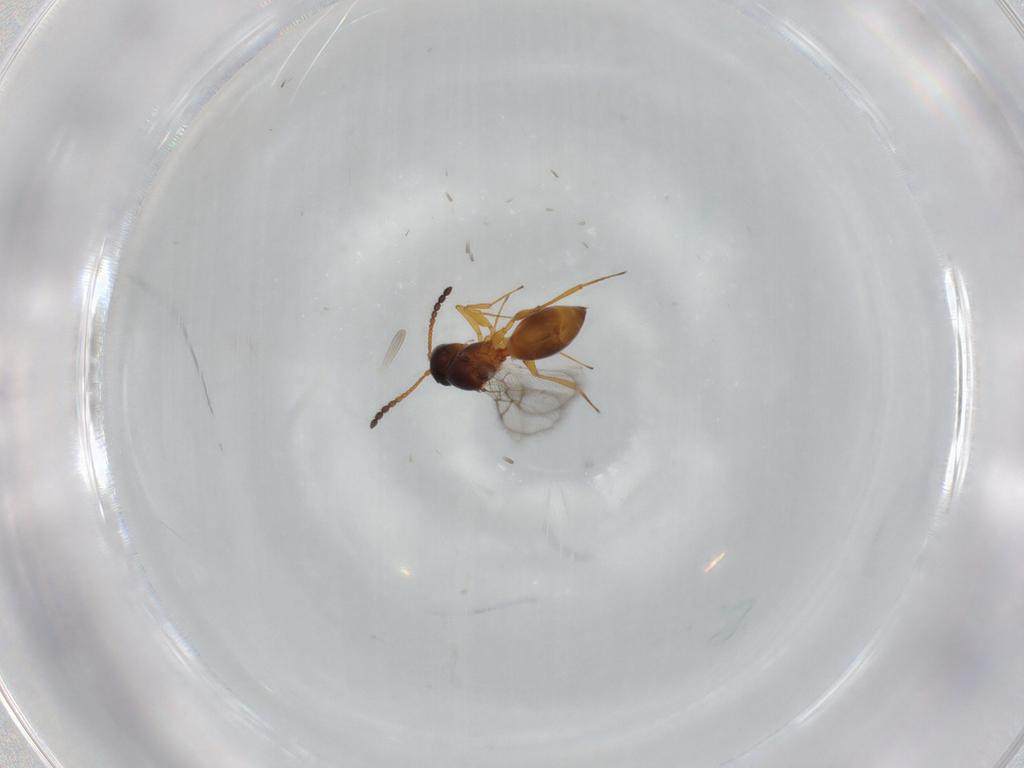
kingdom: Animalia
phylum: Arthropoda
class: Insecta
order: Hymenoptera
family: Figitidae
